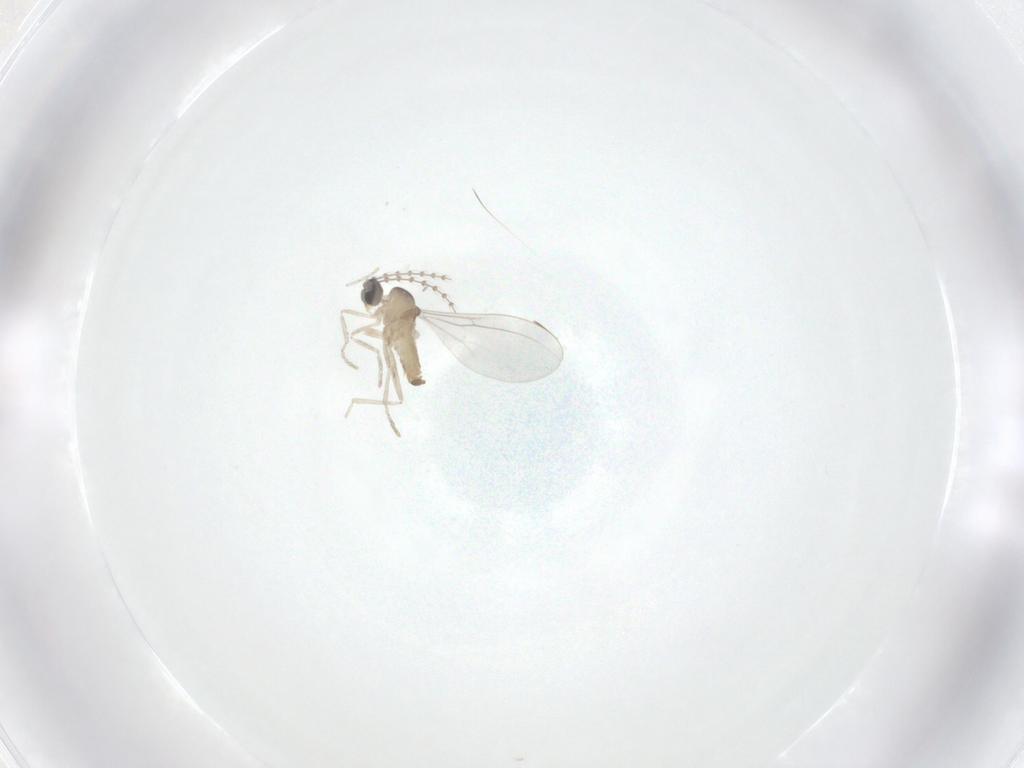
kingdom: Animalia
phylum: Arthropoda
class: Insecta
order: Diptera
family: Cecidomyiidae
